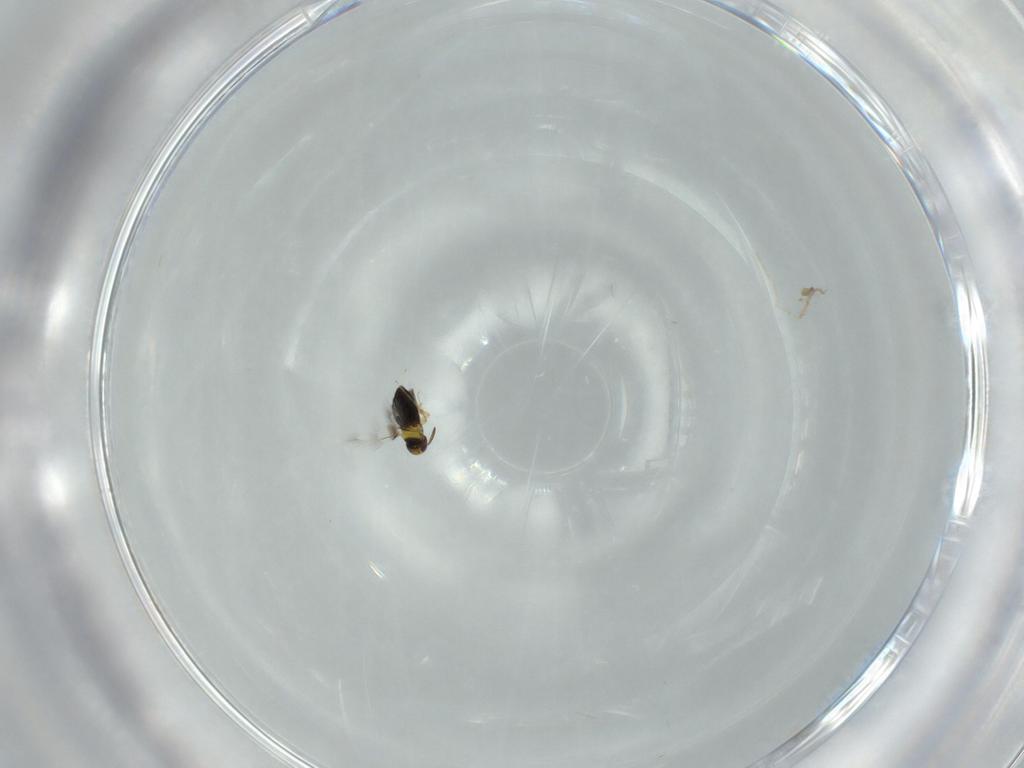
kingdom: Animalia
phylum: Arthropoda
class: Insecta
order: Hymenoptera
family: Signiphoridae
